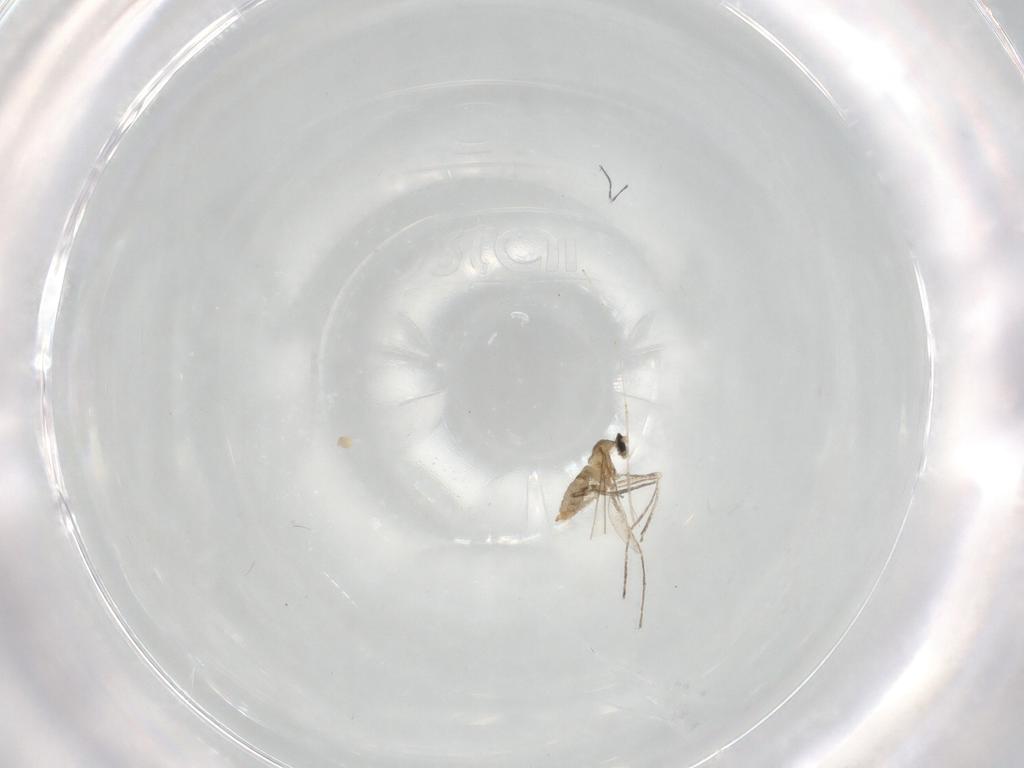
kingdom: Animalia
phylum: Arthropoda
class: Insecta
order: Diptera
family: Cecidomyiidae
